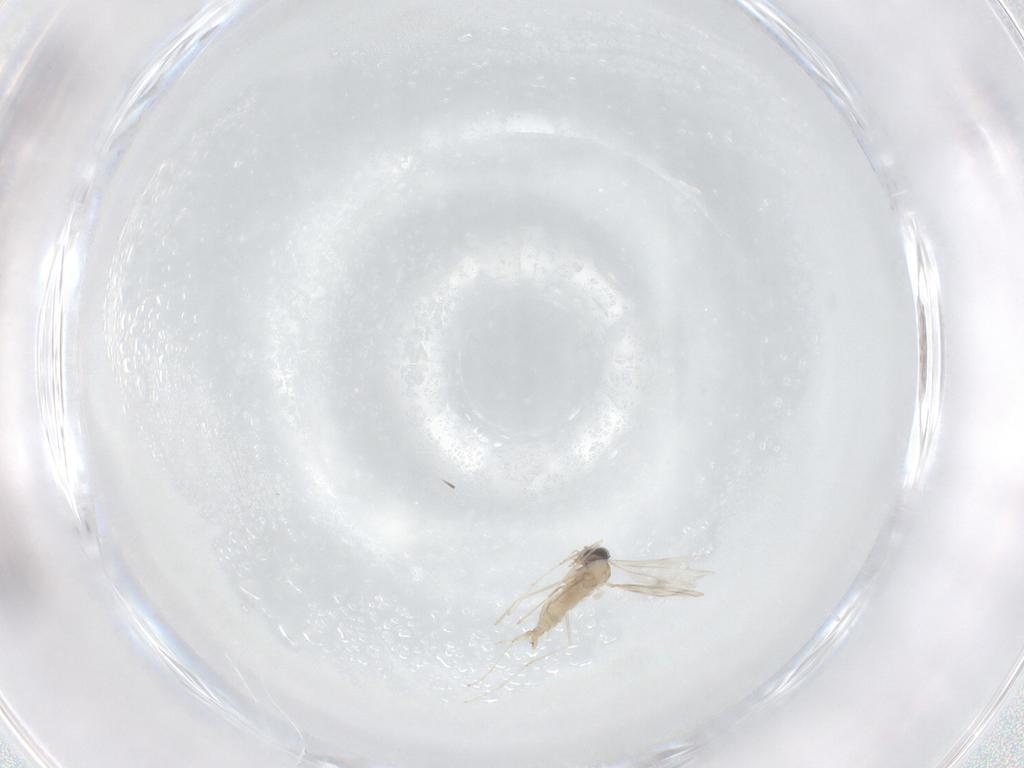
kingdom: Animalia
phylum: Arthropoda
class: Insecta
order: Diptera
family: Cecidomyiidae
